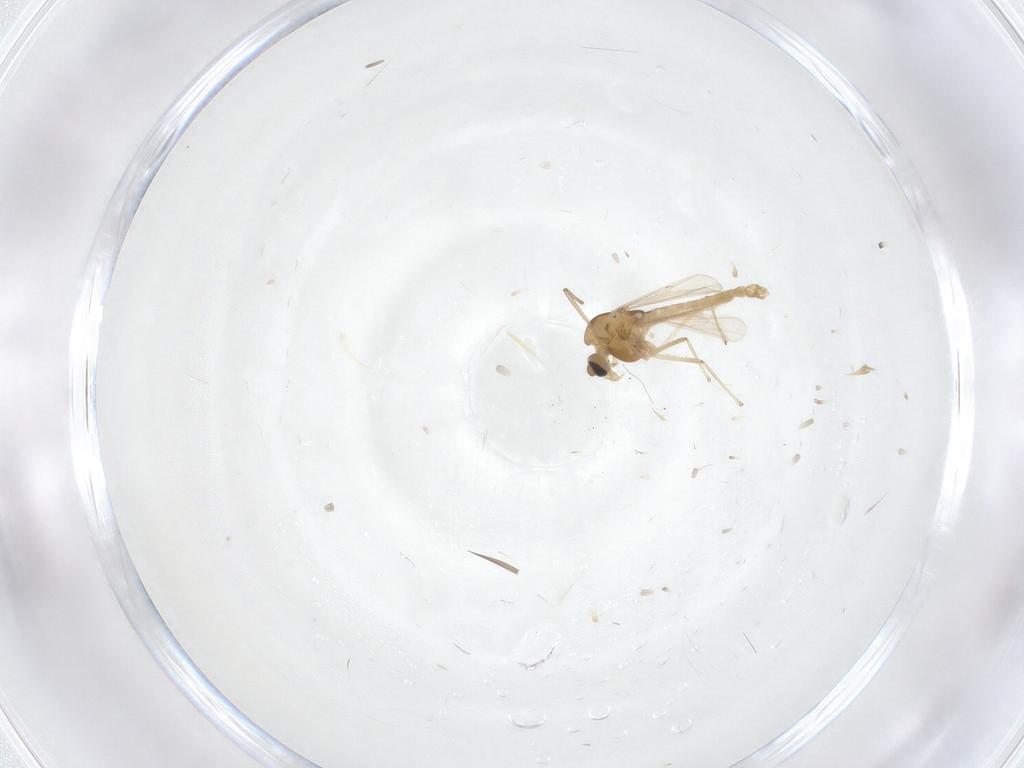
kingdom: Animalia
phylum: Arthropoda
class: Insecta
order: Diptera
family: Chironomidae
